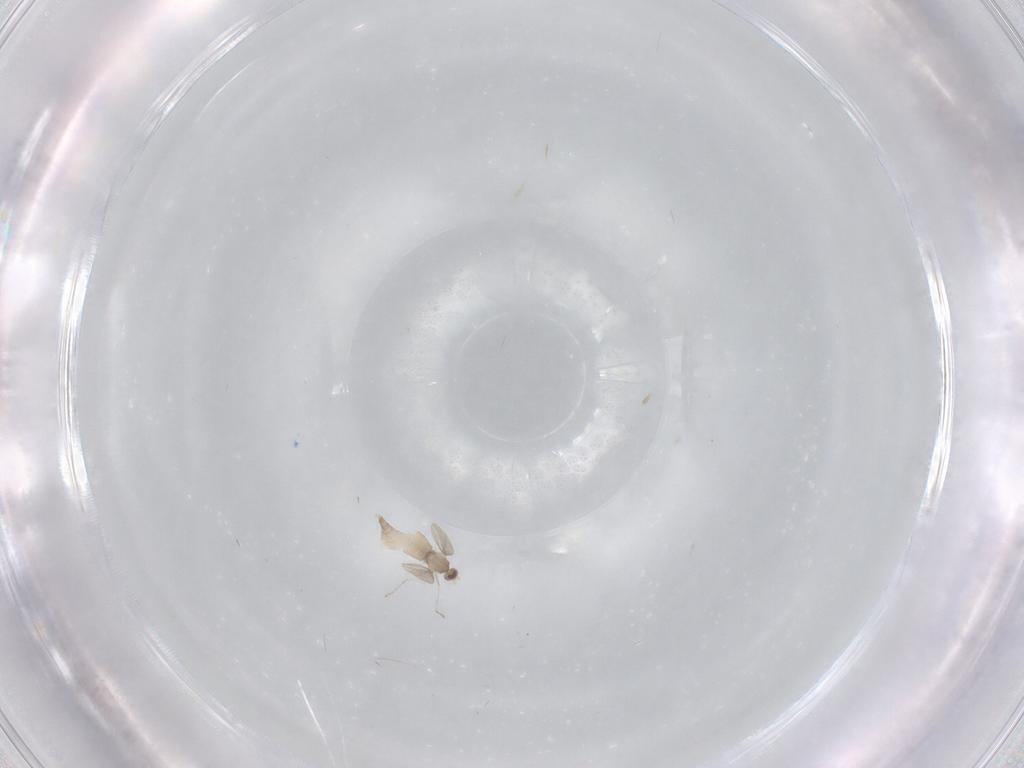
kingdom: Animalia
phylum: Arthropoda
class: Insecta
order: Diptera
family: Cecidomyiidae
